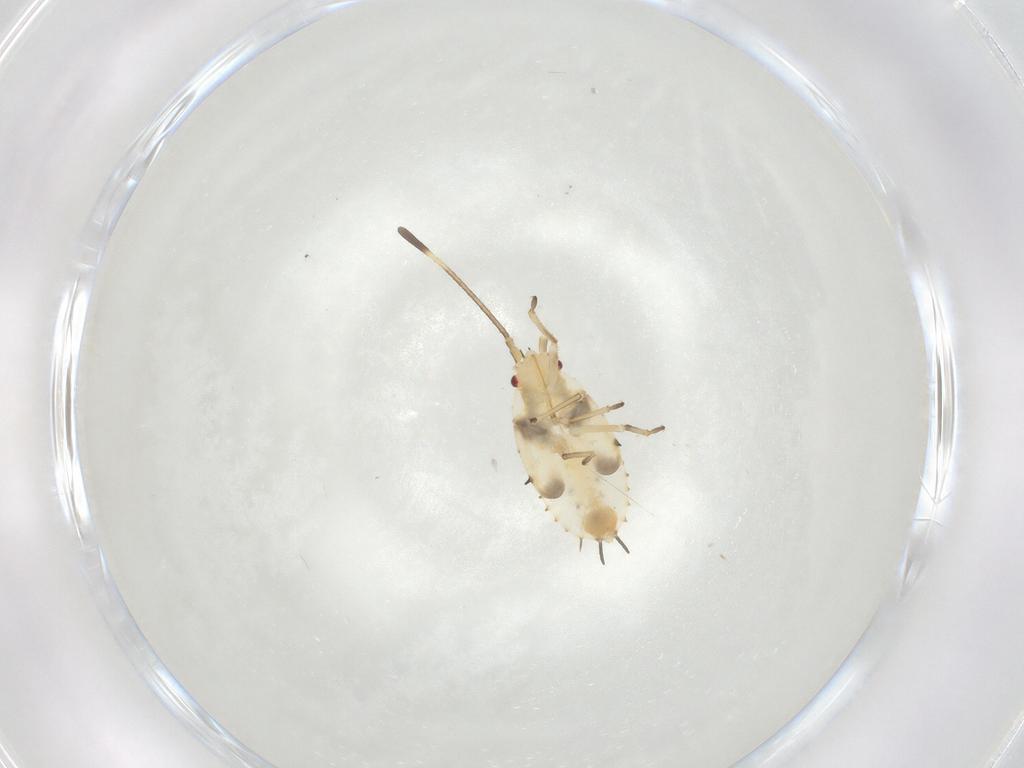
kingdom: Animalia
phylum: Arthropoda
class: Insecta
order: Hemiptera
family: Tingidae
